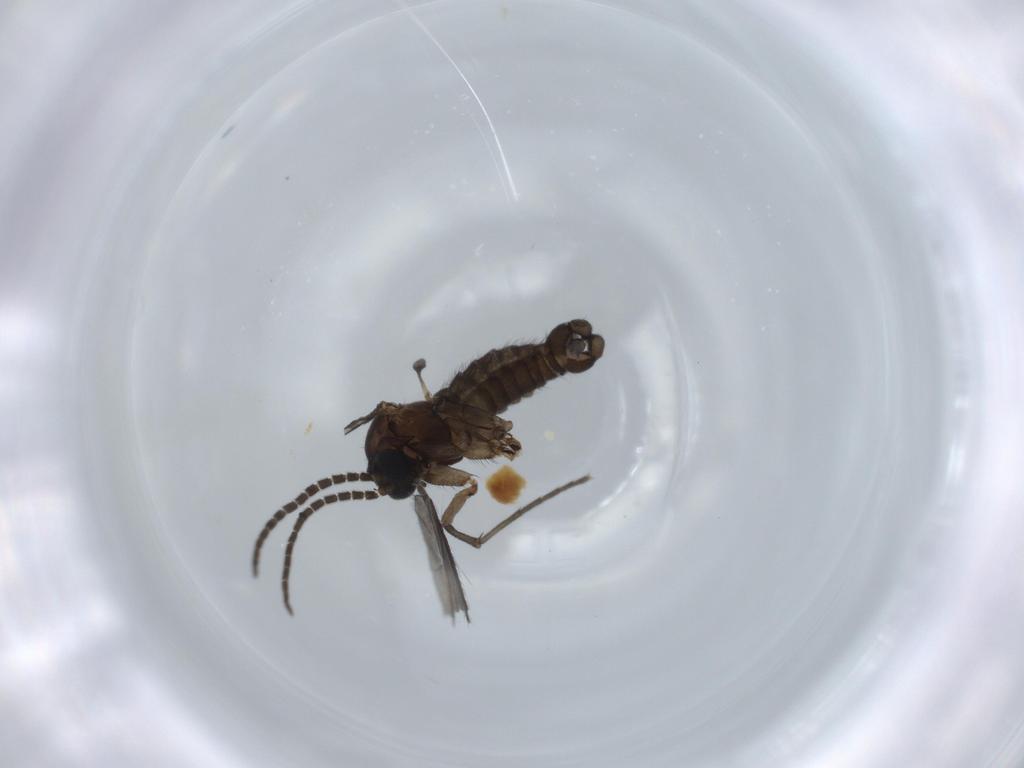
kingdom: Animalia
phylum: Arthropoda
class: Insecta
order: Diptera
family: Sciaridae
